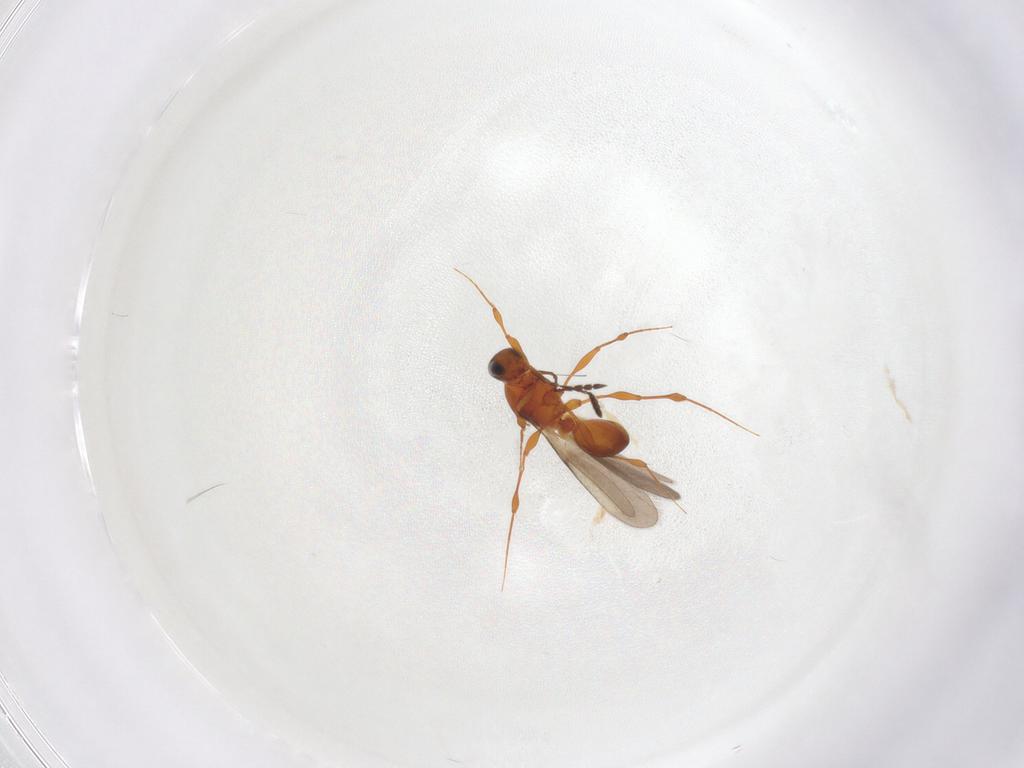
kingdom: Animalia
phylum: Arthropoda
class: Insecta
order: Hymenoptera
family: Platygastridae
